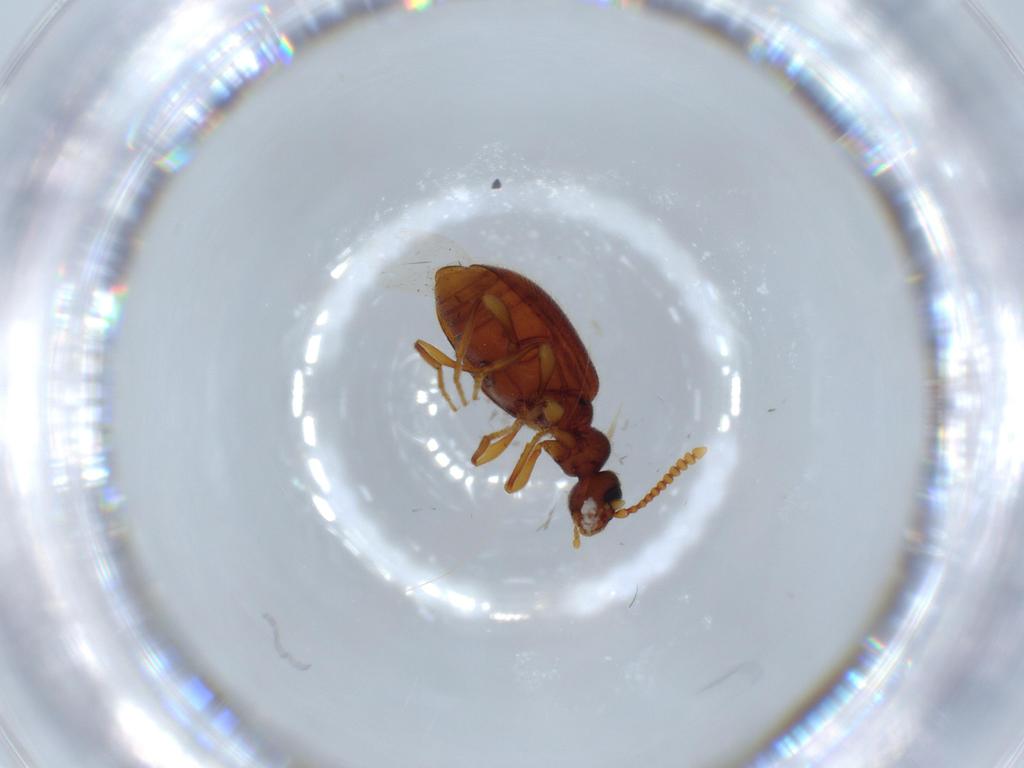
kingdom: Animalia
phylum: Arthropoda
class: Insecta
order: Coleoptera
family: Anthicidae
